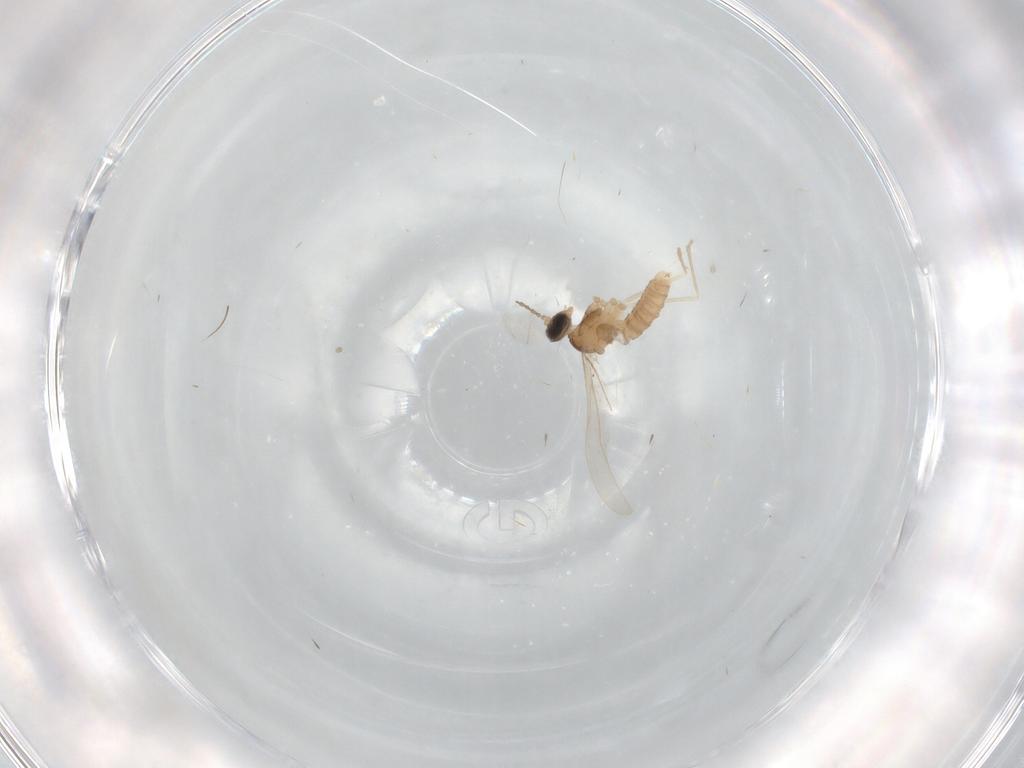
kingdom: Animalia
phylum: Arthropoda
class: Insecta
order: Diptera
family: Cecidomyiidae
